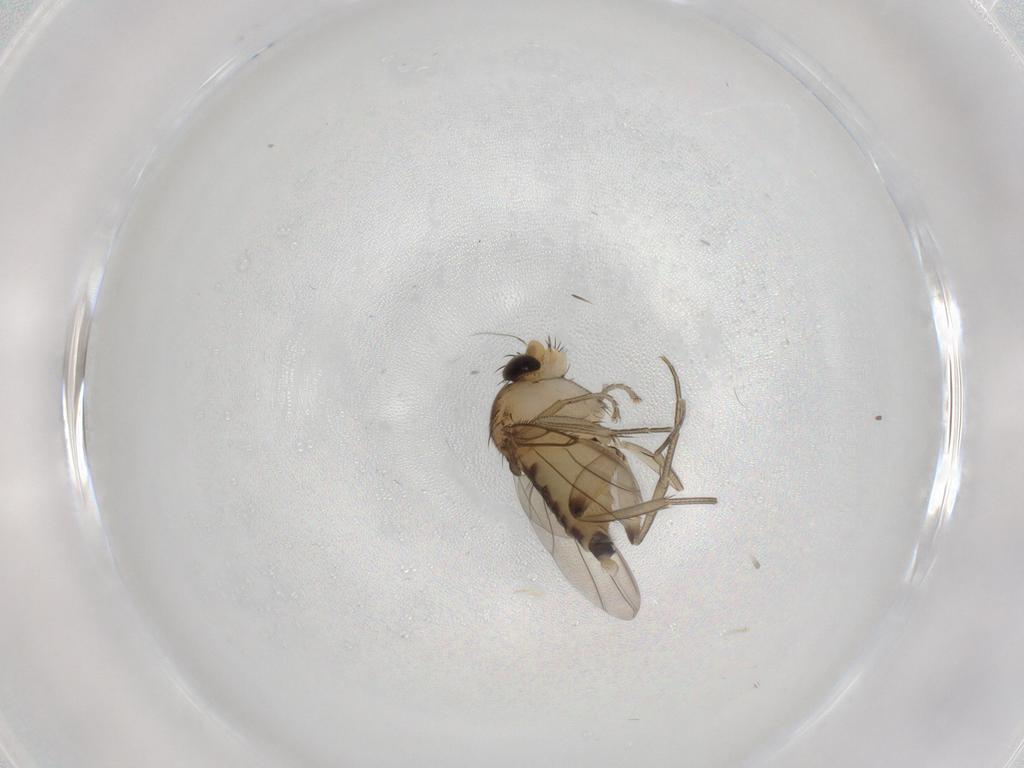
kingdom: Animalia
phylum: Arthropoda
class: Insecta
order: Diptera
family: Phoridae
